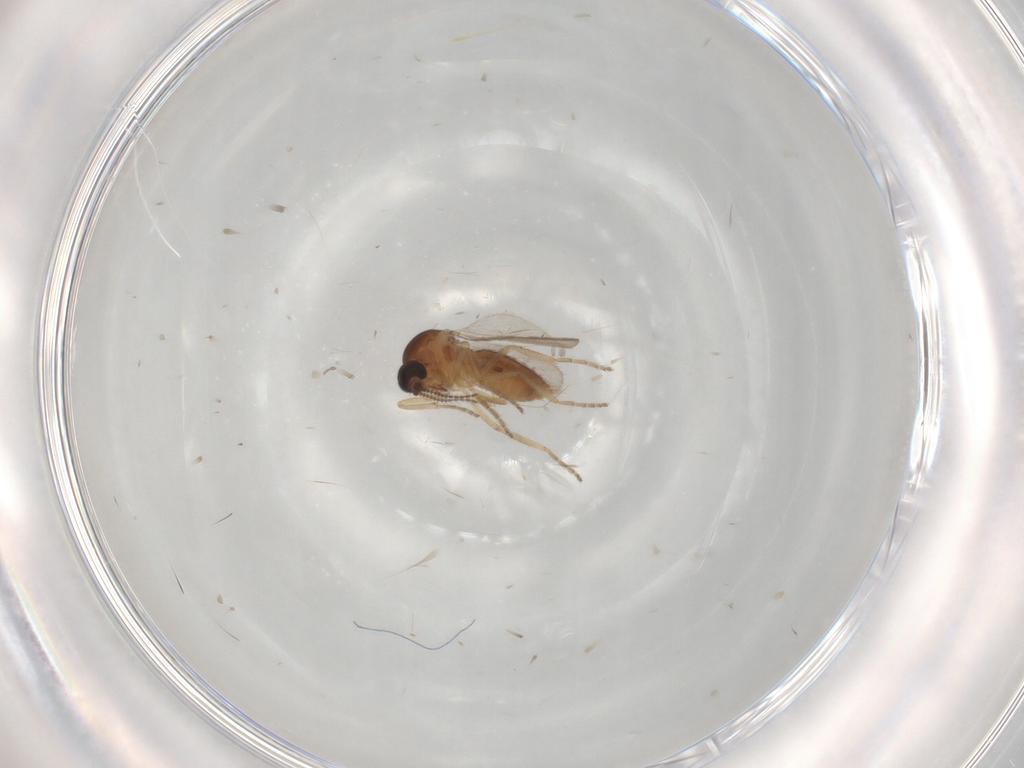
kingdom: Animalia
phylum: Arthropoda
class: Insecta
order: Diptera
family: Ceratopogonidae
